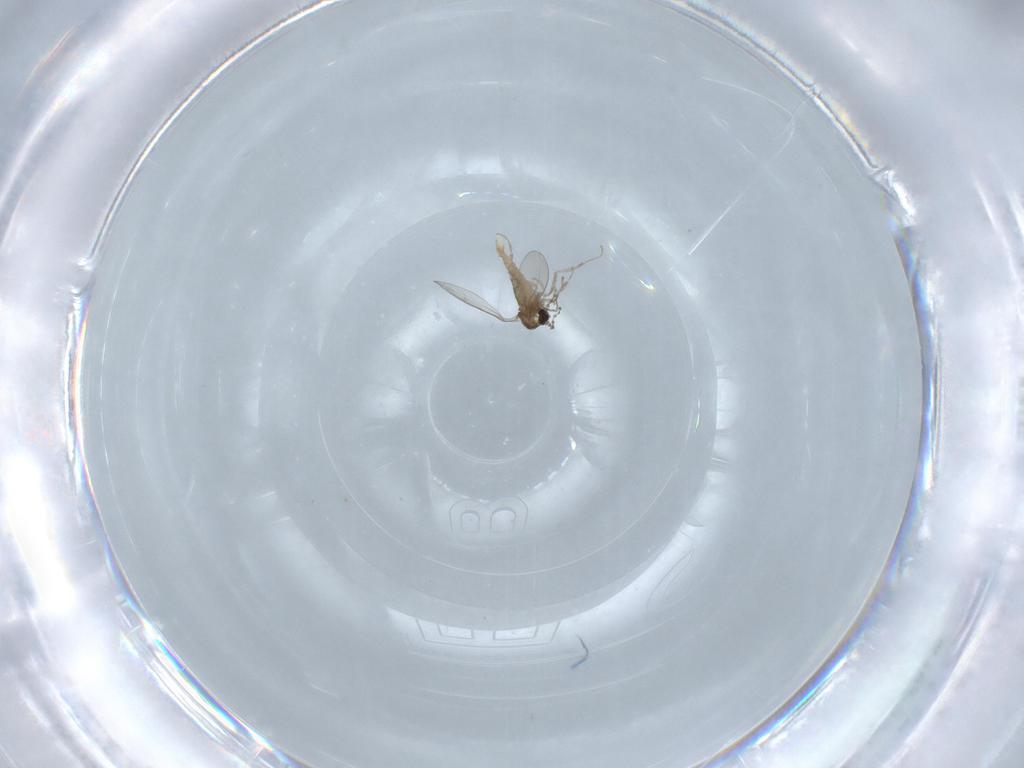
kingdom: Animalia
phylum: Arthropoda
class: Insecta
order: Diptera
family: Cecidomyiidae
